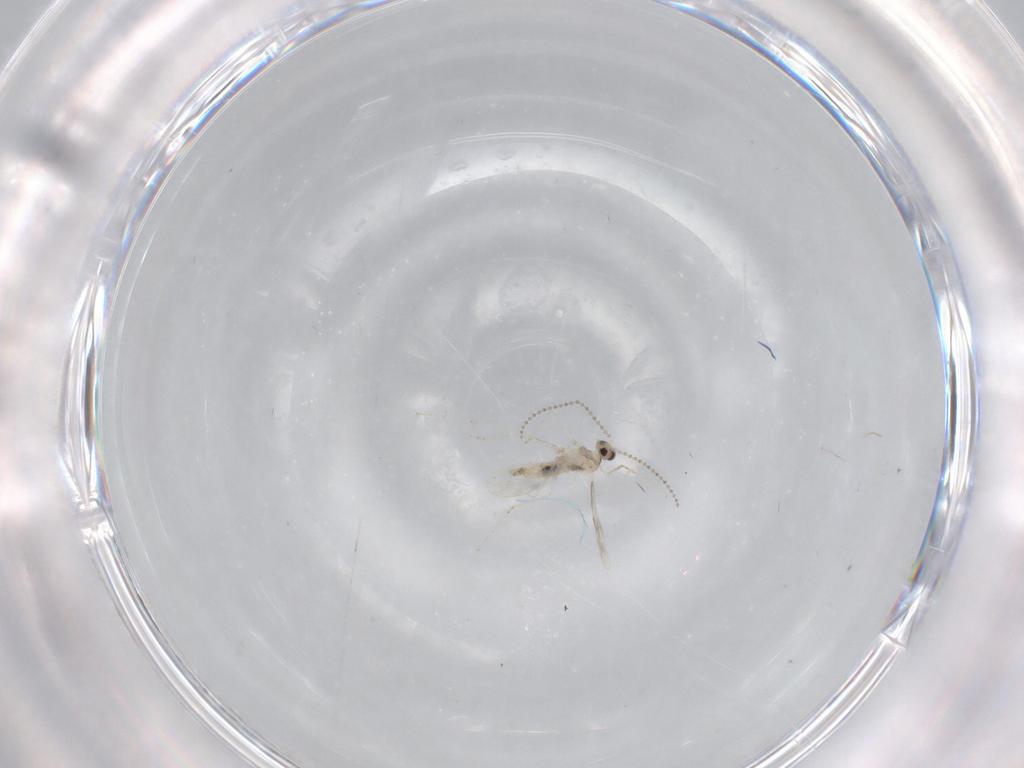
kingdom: Animalia
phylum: Arthropoda
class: Insecta
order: Diptera
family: Cecidomyiidae
